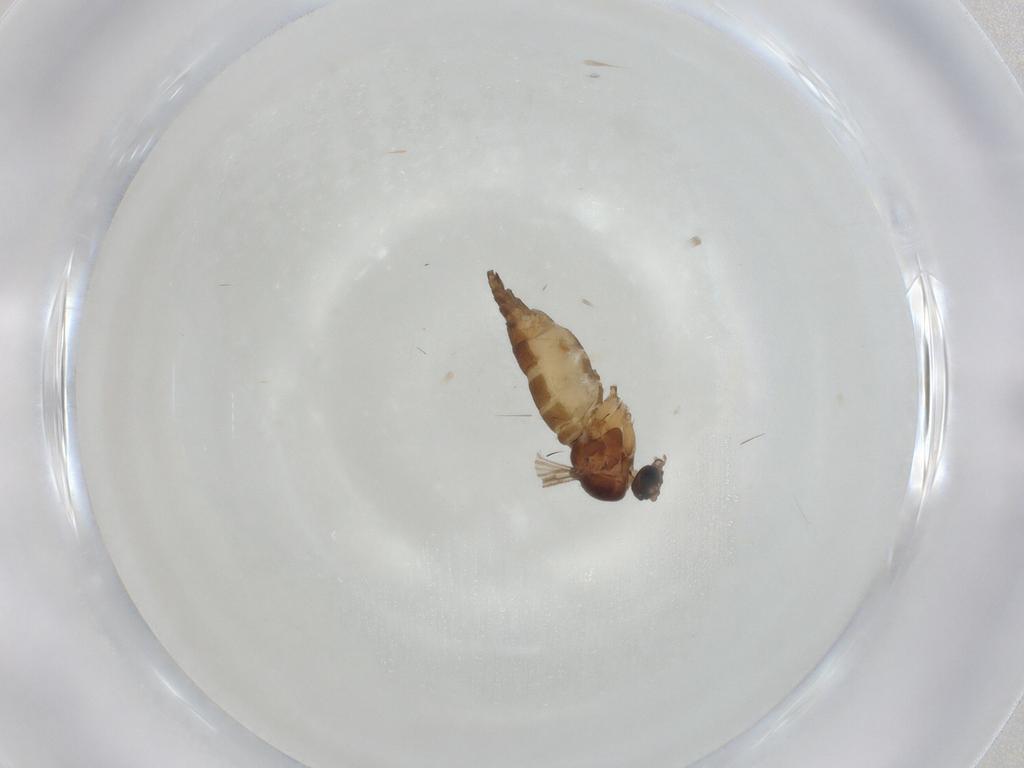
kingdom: Animalia
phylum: Arthropoda
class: Insecta
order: Diptera
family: Sciaridae
